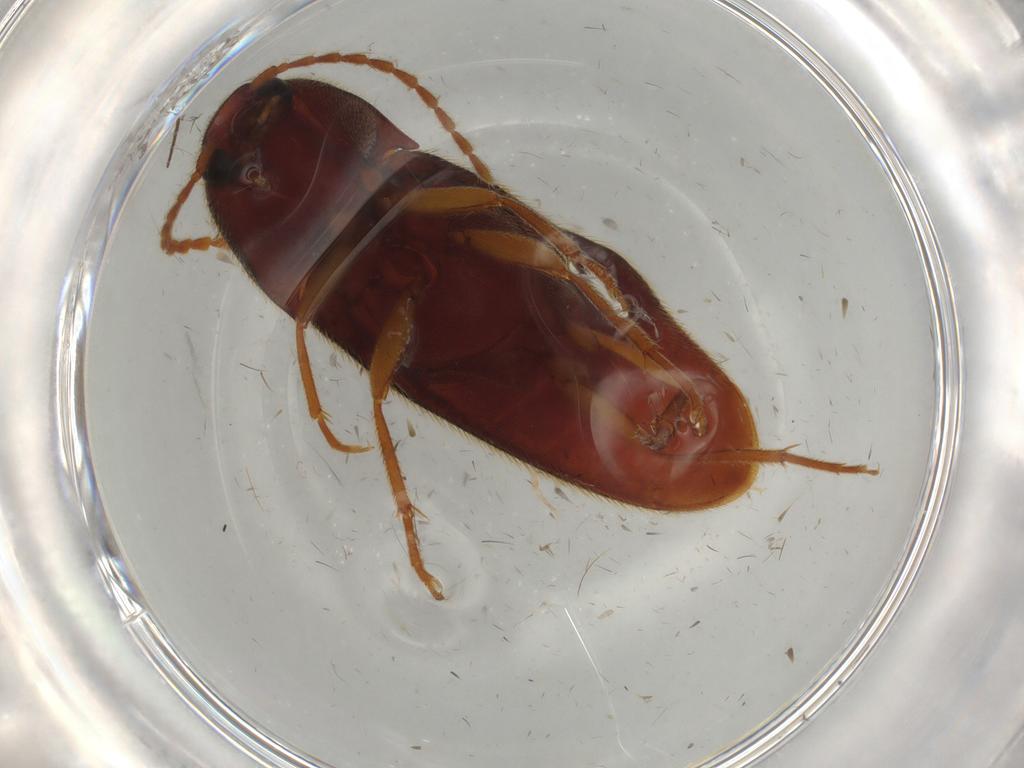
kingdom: Animalia
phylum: Arthropoda
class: Insecta
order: Coleoptera
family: Elateridae
